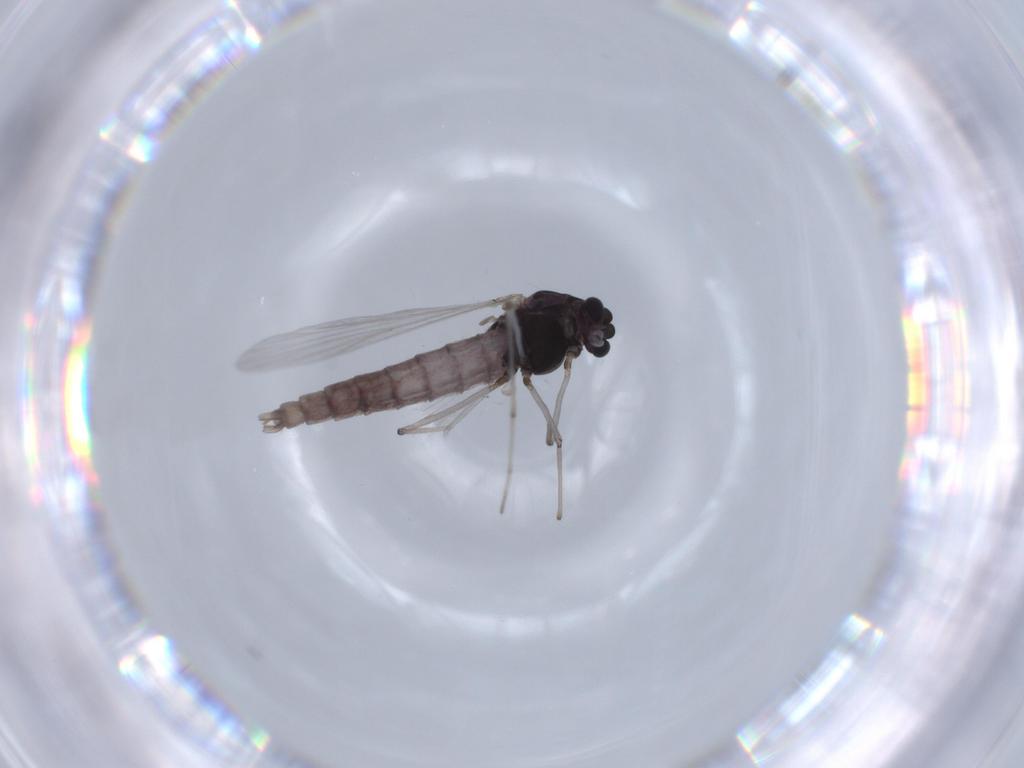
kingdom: Animalia
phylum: Arthropoda
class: Insecta
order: Diptera
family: Chironomidae
